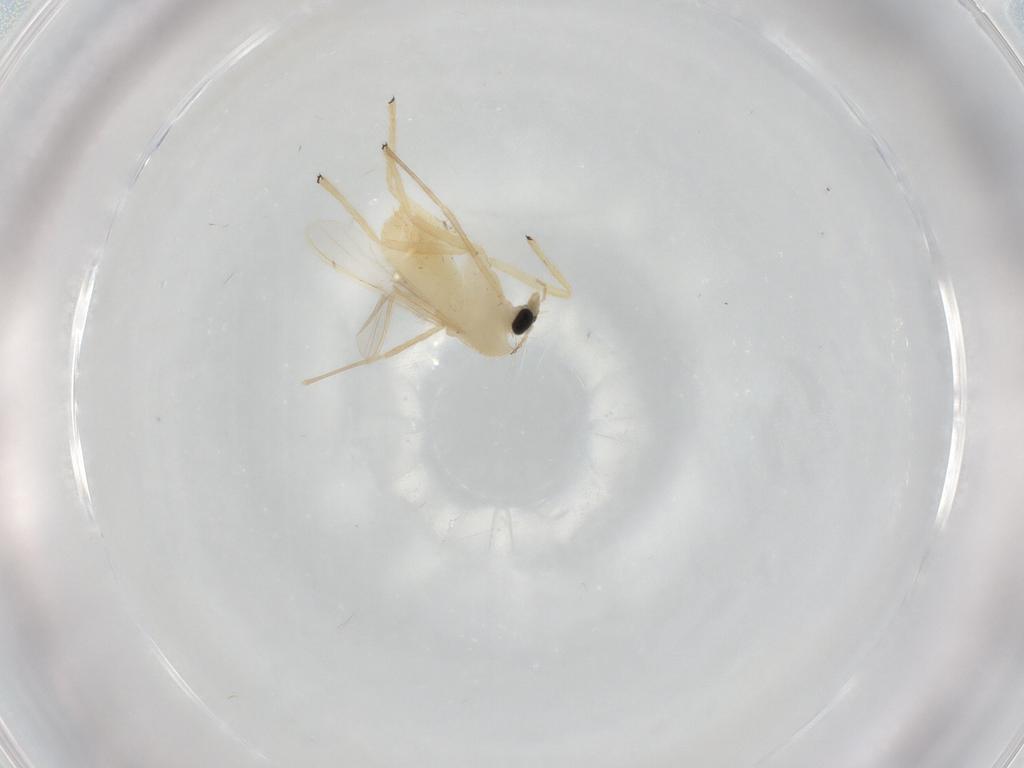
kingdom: Animalia
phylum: Arthropoda
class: Insecta
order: Diptera
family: Chironomidae
